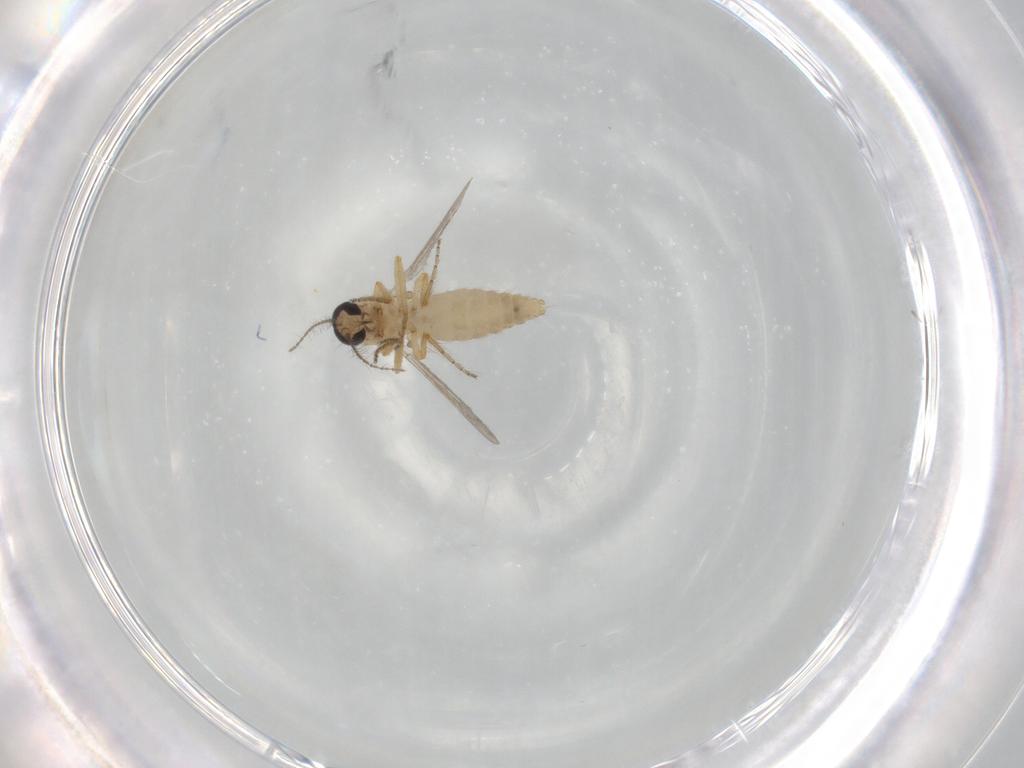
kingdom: Animalia
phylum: Arthropoda
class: Insecta
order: Diptera
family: Ceratopogonidae
